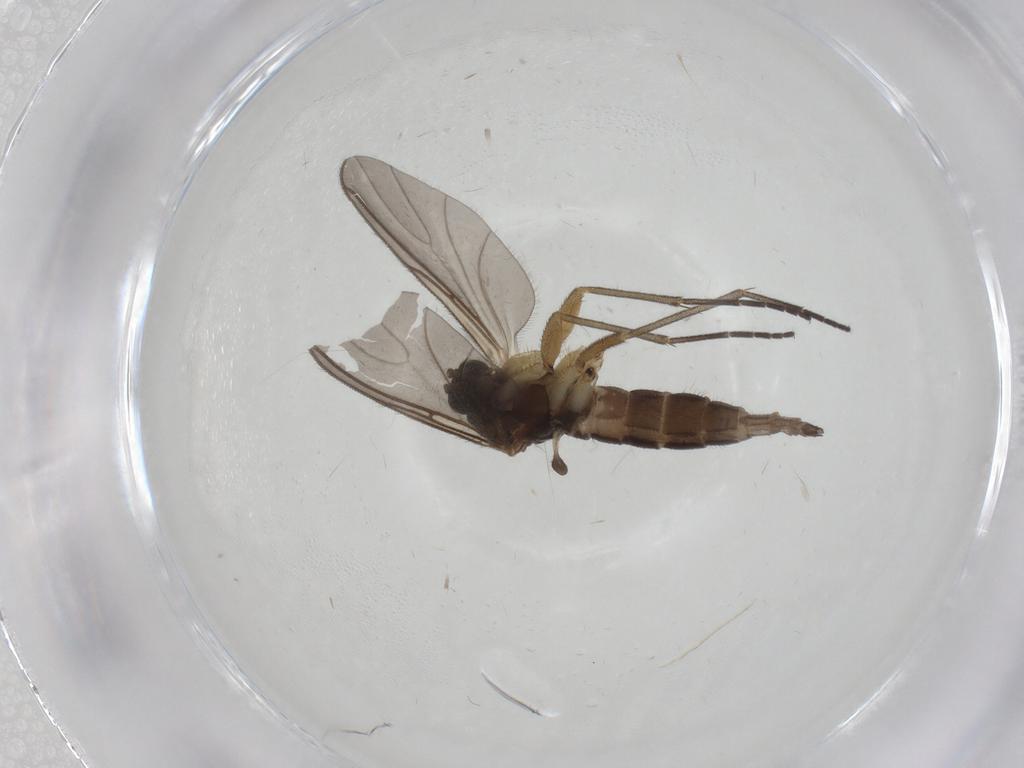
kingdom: Animalia
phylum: Arthropoda
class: Insecta
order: Diptera
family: Sciaridae
